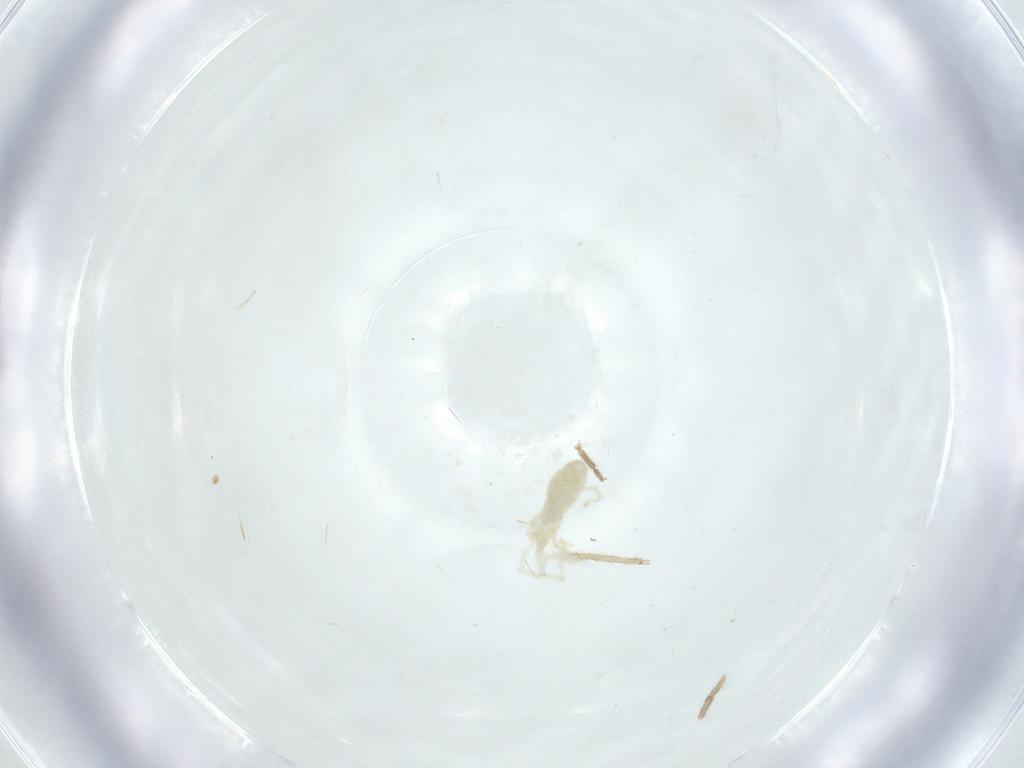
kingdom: Animalia
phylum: Arthropoda
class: Arachnida
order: Trombidiformes
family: Erythraeidae
